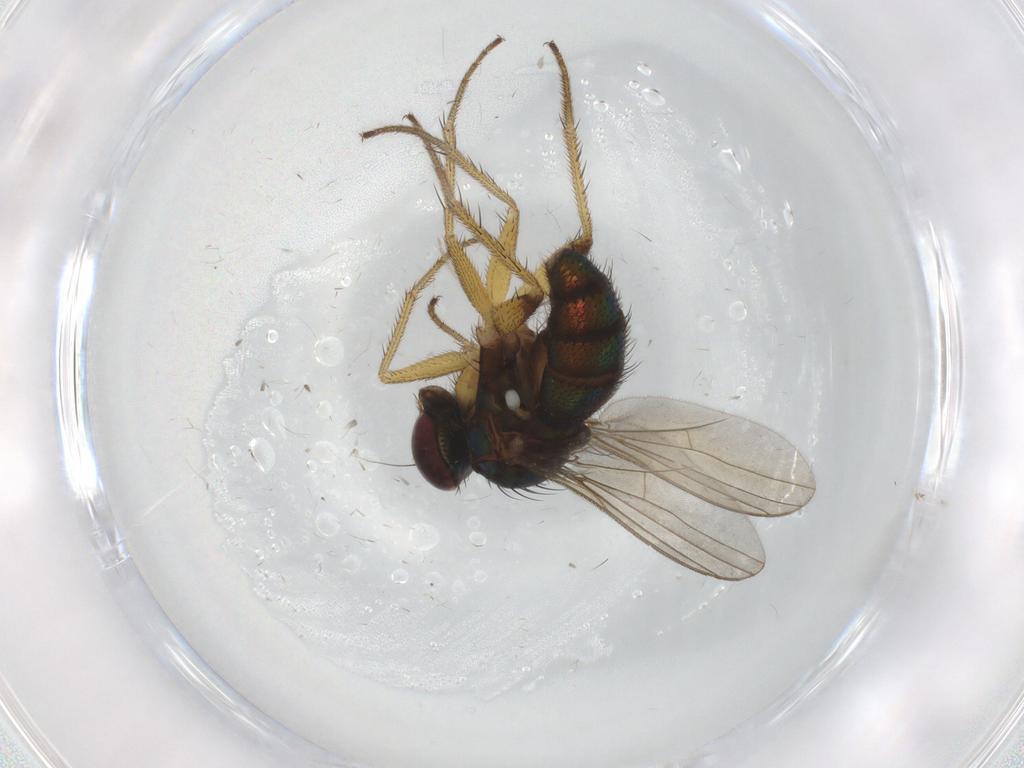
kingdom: Animalia
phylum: Arthropoda
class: Insecta
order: Diptera
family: Dolichopodidae
